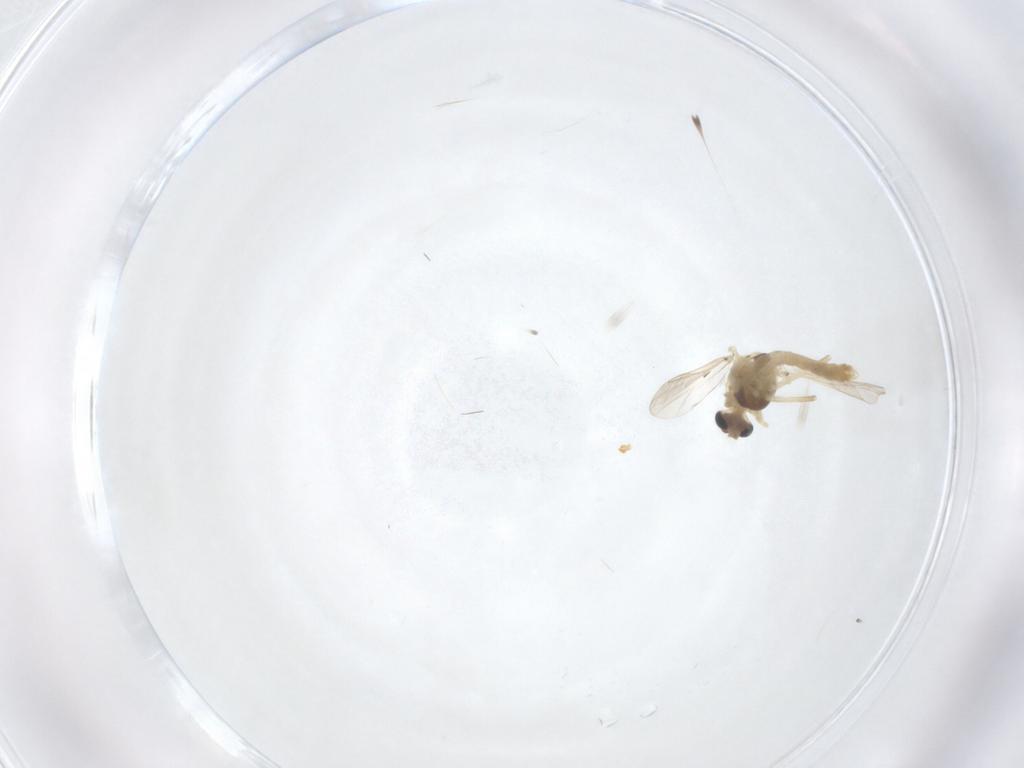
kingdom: Animalia
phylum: Arthropoda
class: Insecta
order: Diptera
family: Chironomidae
